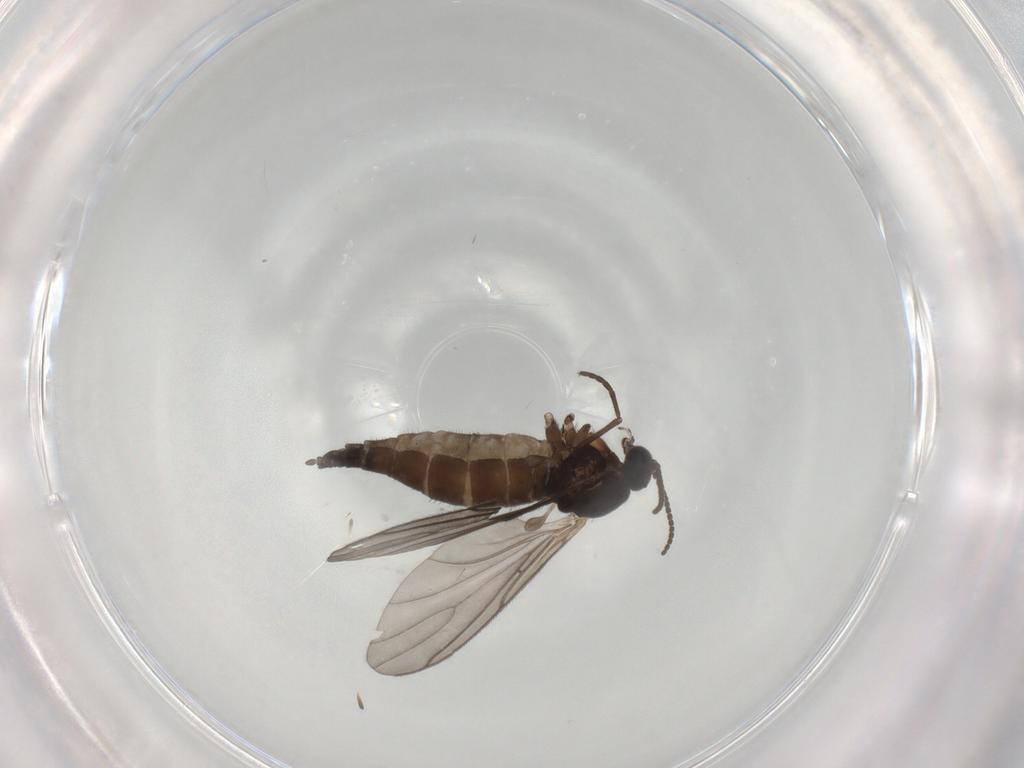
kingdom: Animalia
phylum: Arthropoda
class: Insecta
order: Diptera
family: Sciaridae
